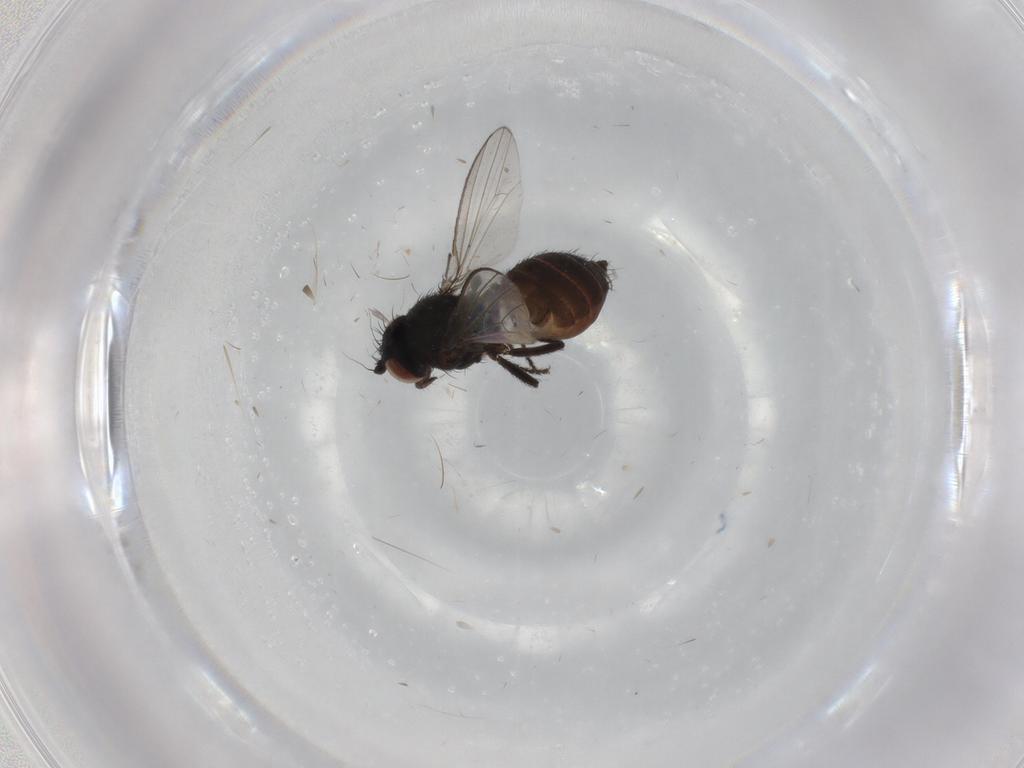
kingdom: Animalia
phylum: Arthropoda
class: Insecta
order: Diptera
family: Milichiidae
